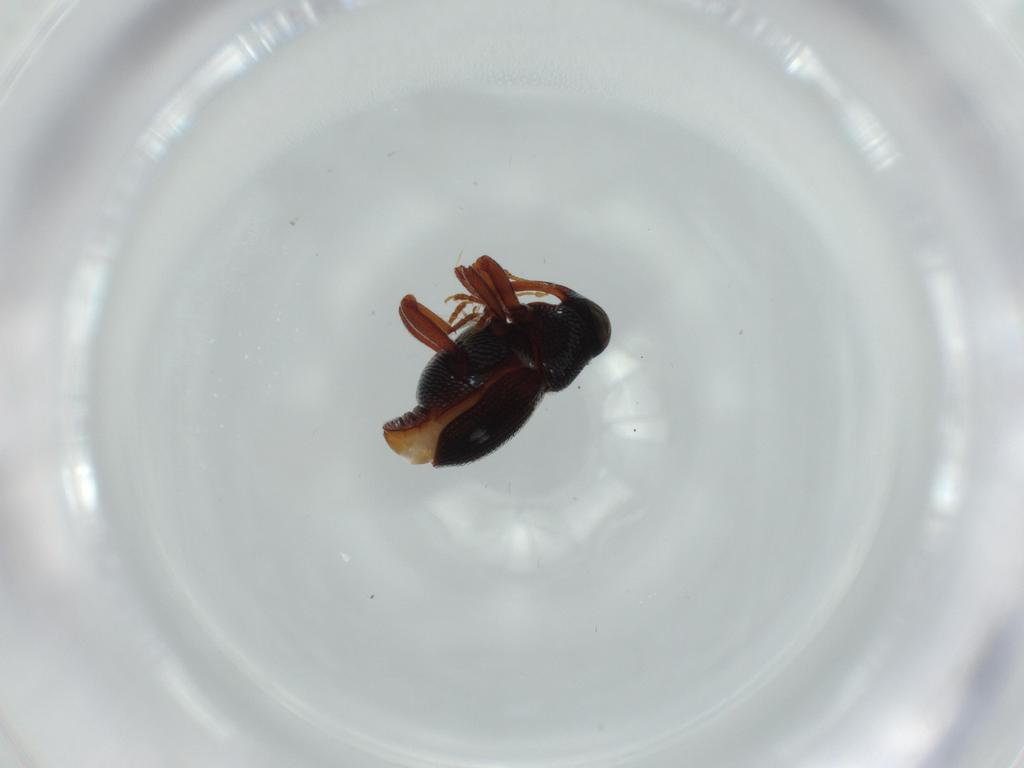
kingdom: Animalia
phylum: Arthropoda
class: Insecta
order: Coleoptera
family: Curculionidae
